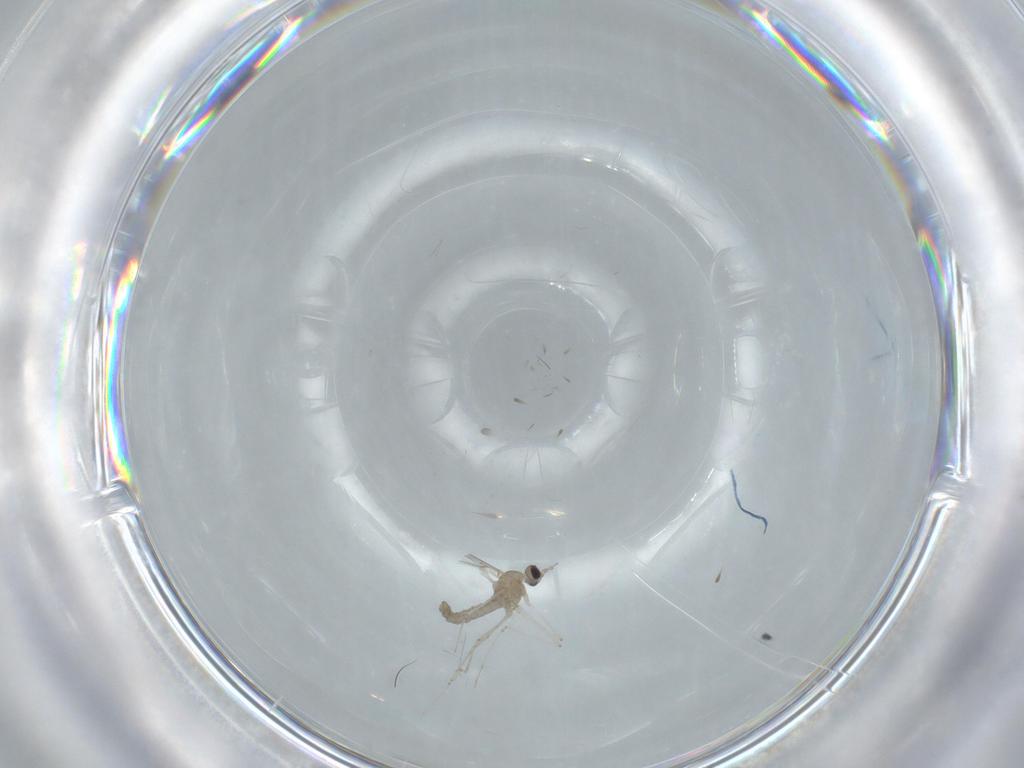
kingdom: Animalia
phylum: Arthropoda
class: Insecta
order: Diptera
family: Cecidomyiidae
